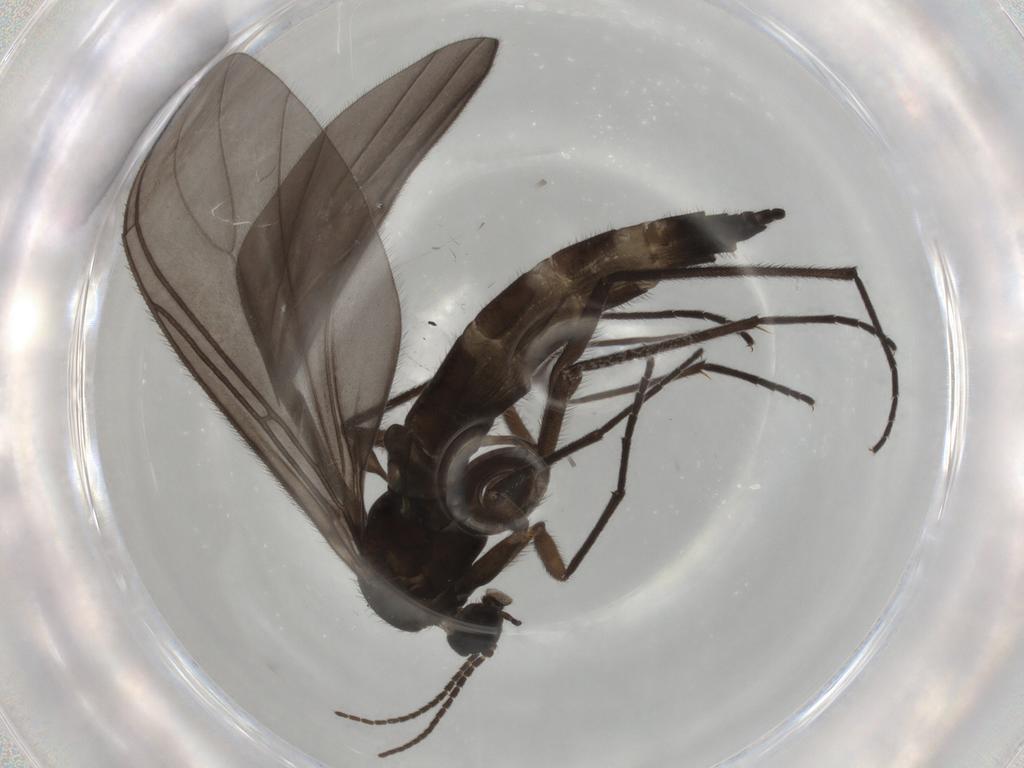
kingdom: Animalia
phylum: Arthropoda
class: Insecta
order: Diptera
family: Sciaridae
